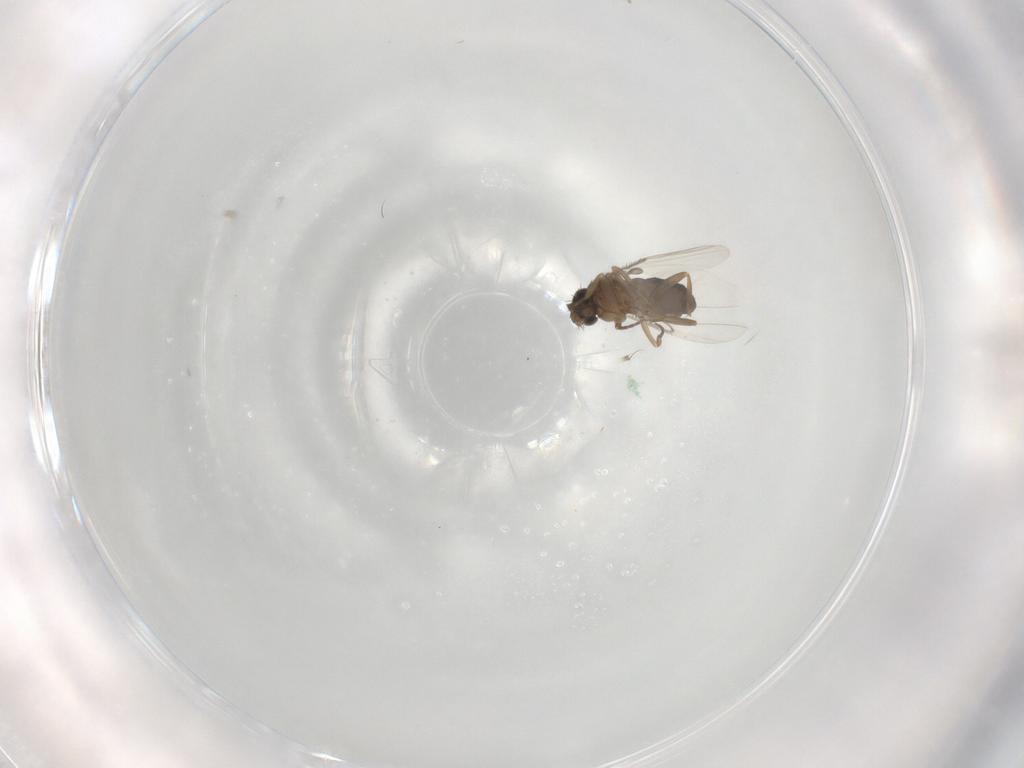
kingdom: Animalia
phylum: Arthropoda
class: Insecta
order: Diptera
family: Phoridae
